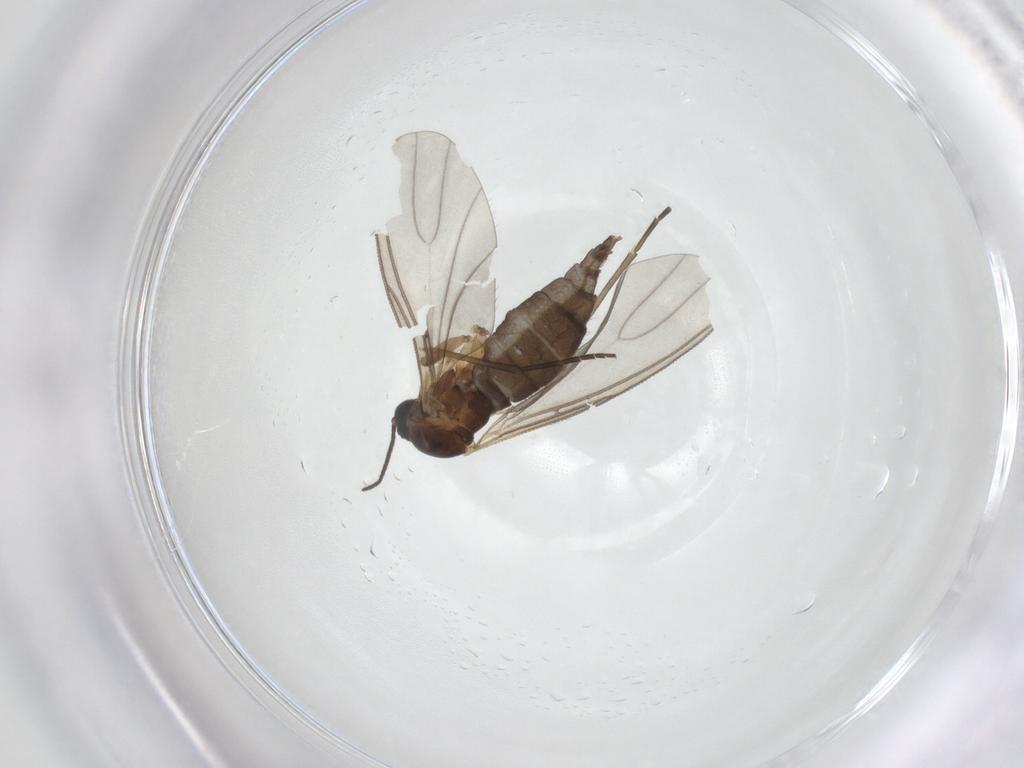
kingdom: Animalia
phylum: Arthropoda
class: Insecta
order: Diptera
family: Sciaridae
